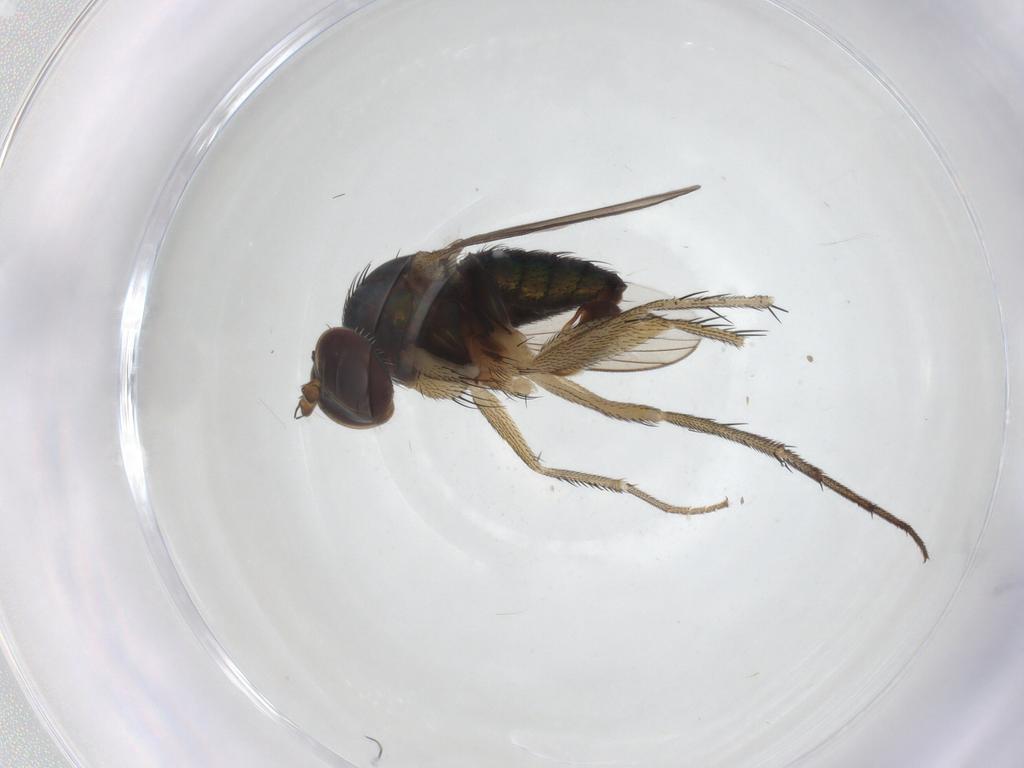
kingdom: Animalia
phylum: Arthropoda
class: Insecta
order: Diptera
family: Dolichopodidae
